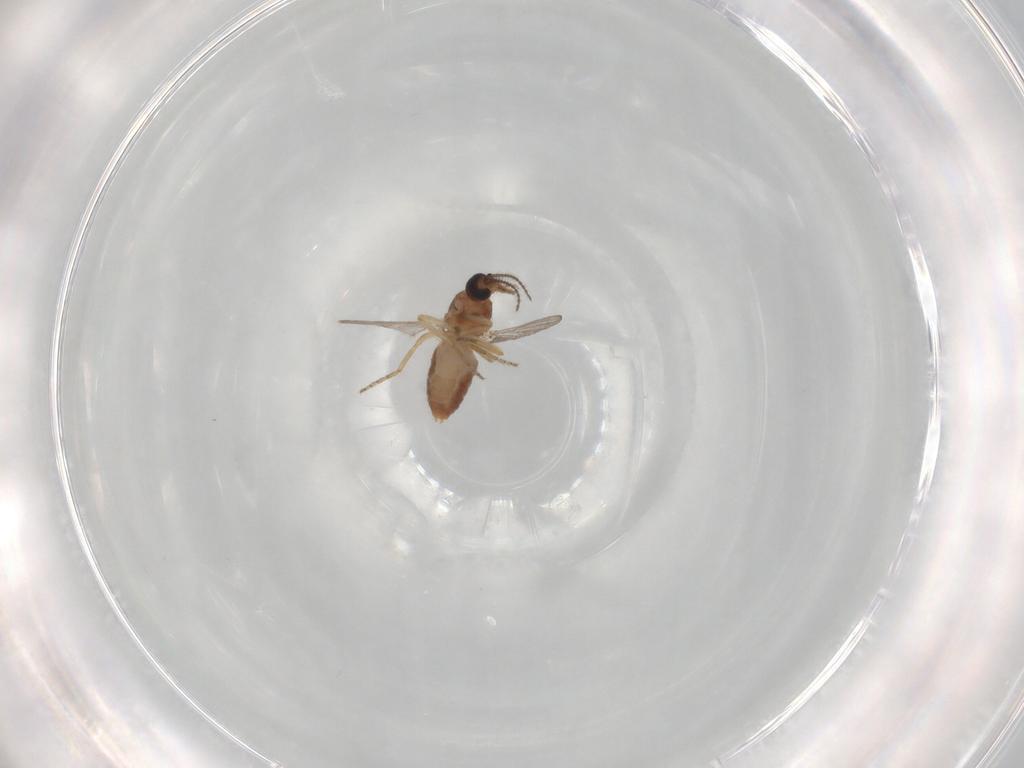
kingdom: Animalia
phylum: Arthropoda
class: Insecta
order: Diptera
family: Ceratopogonidae
